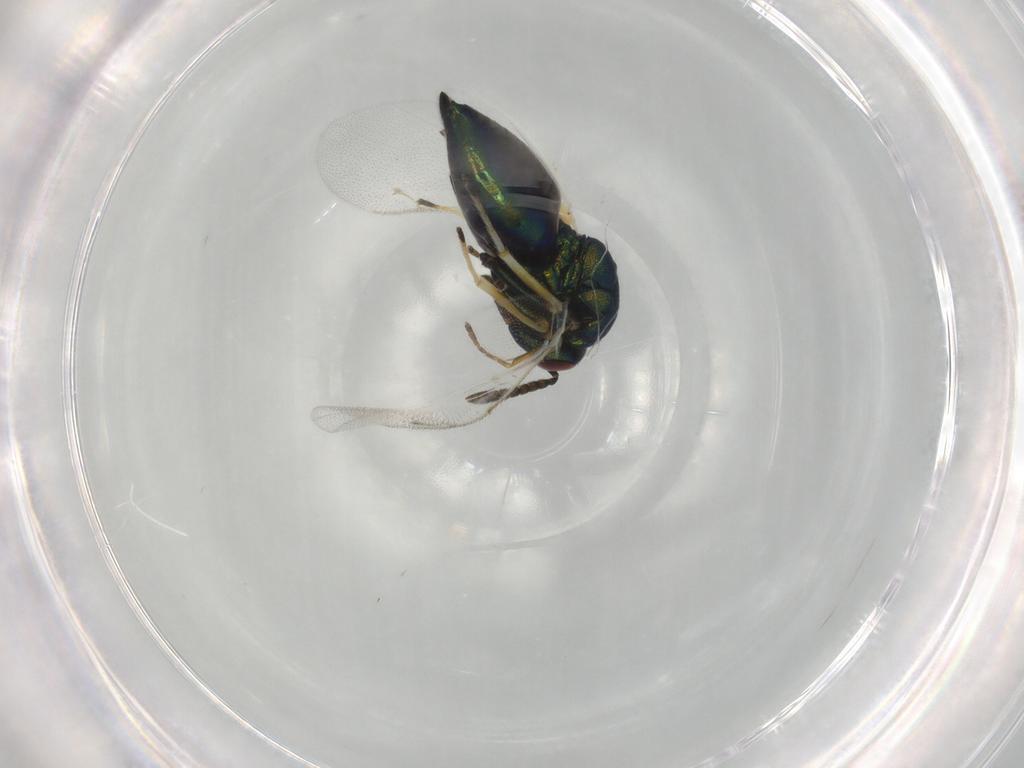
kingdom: Animalia
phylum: Arthropoda
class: Insecta
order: Hymenoptera
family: Pteromalidae
